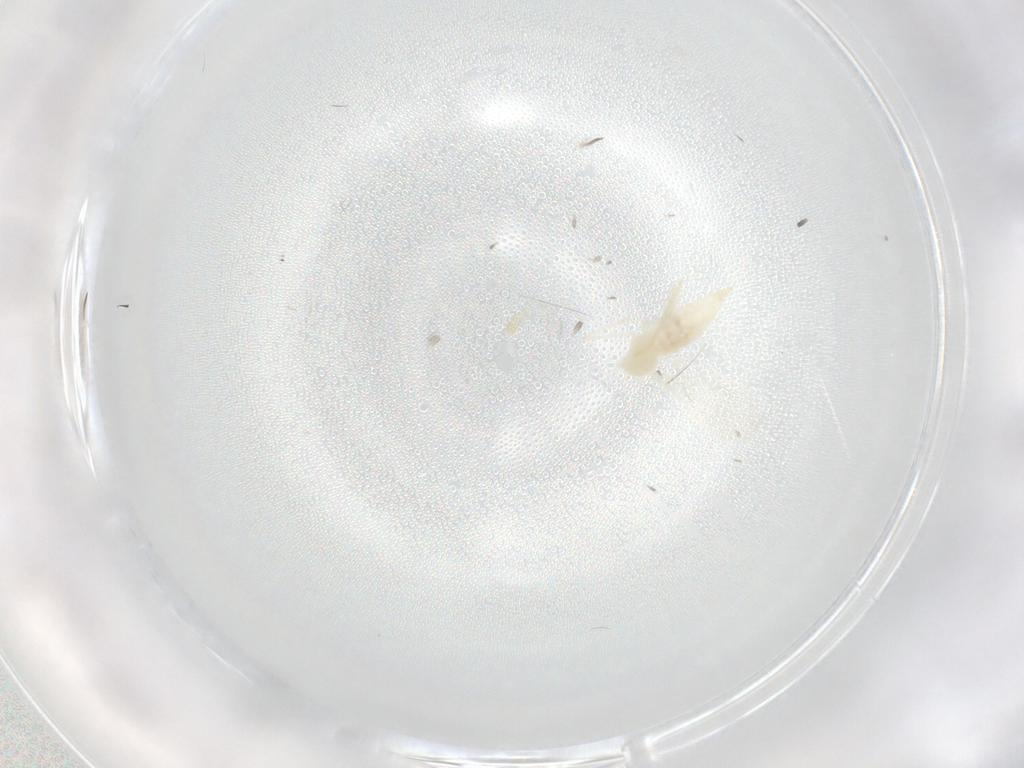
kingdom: Animalia
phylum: Arthropoda
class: Insecta
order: Diptera
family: Cecidomyiidae
